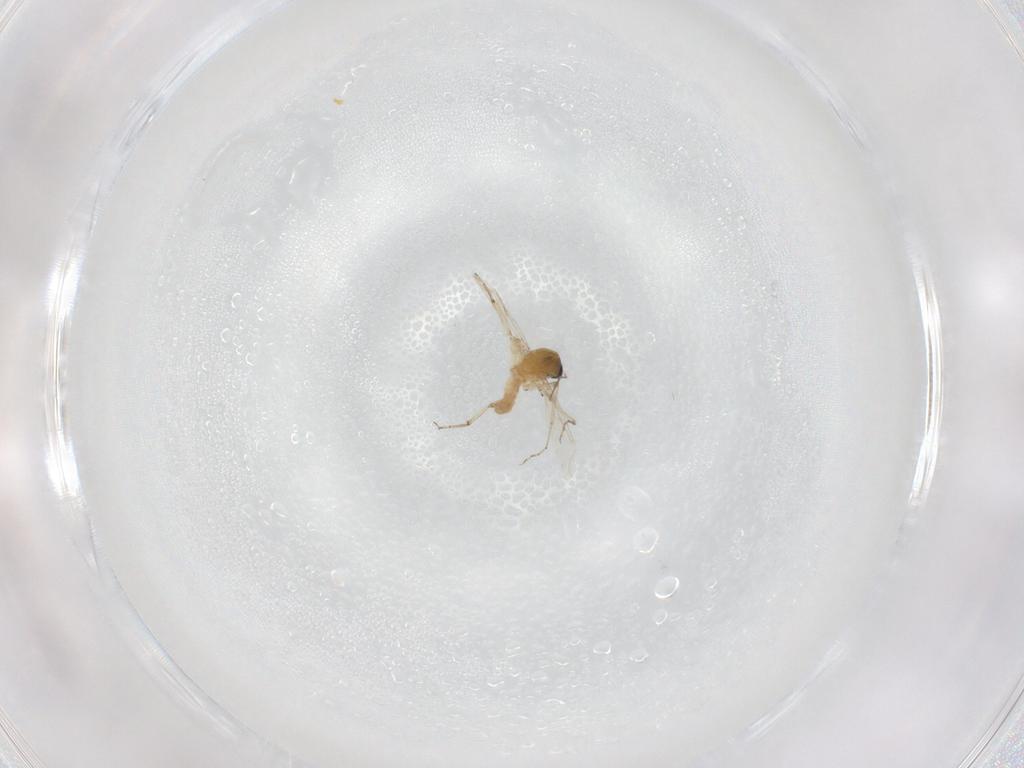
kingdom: Animalia
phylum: Arthropoda
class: Insecta
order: Diptera
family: Ceratopogonidae
